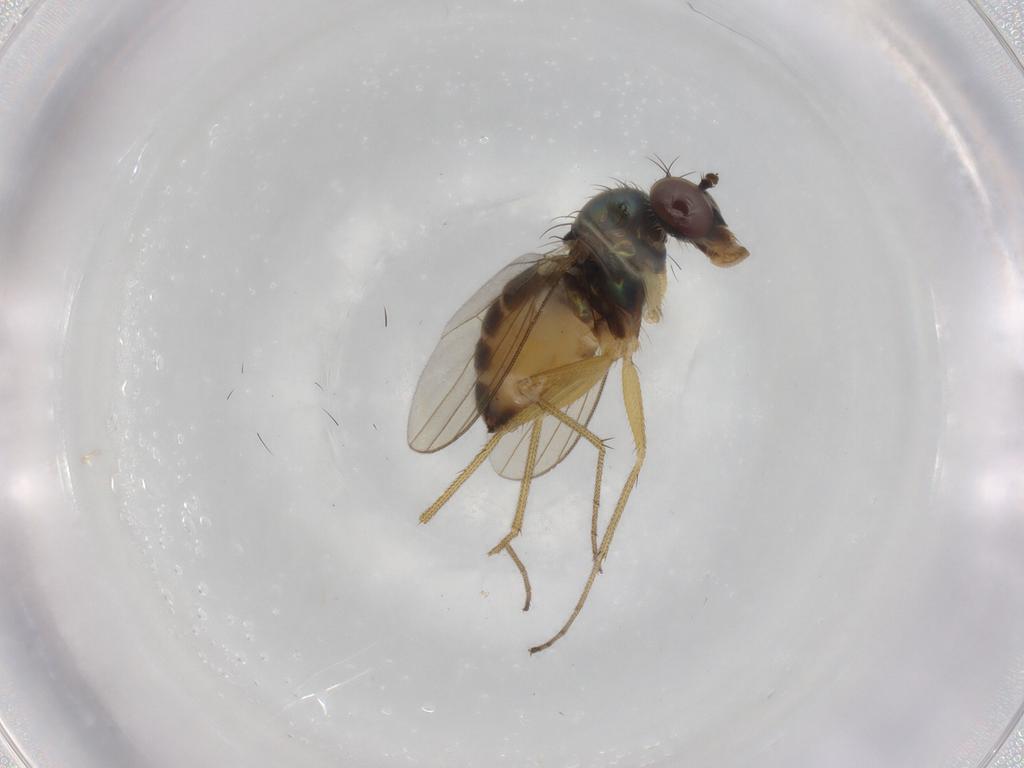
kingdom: Animalia
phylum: Arthropoda
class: Insecta
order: Diptera
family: Dolichopodidae
